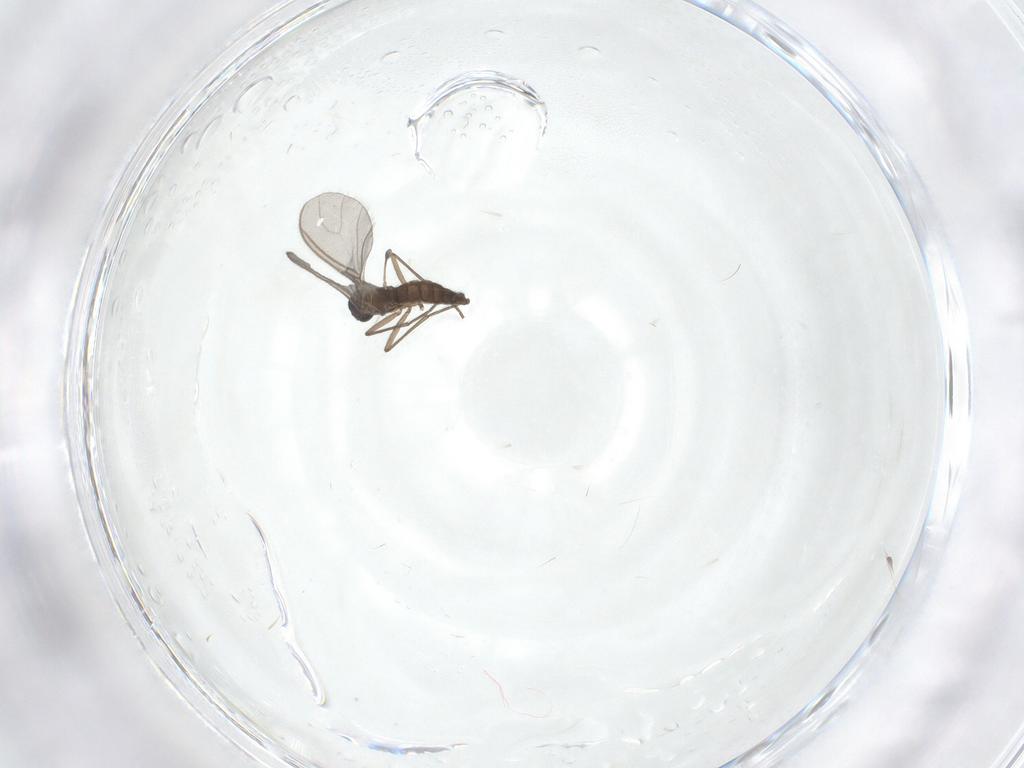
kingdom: Animalia
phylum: Arthropoda
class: Insecta
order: Diptera
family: Sciaridae
